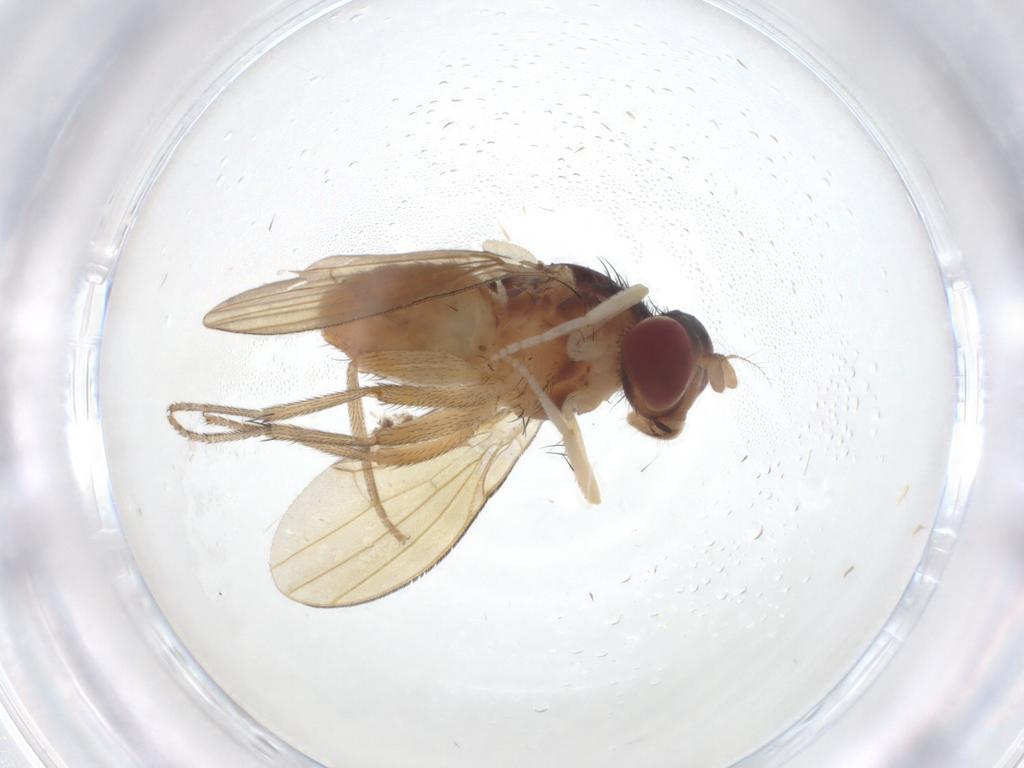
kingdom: Animalia
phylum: Arthropoda
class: Insecta
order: Diptera
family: Lauxaniidae
